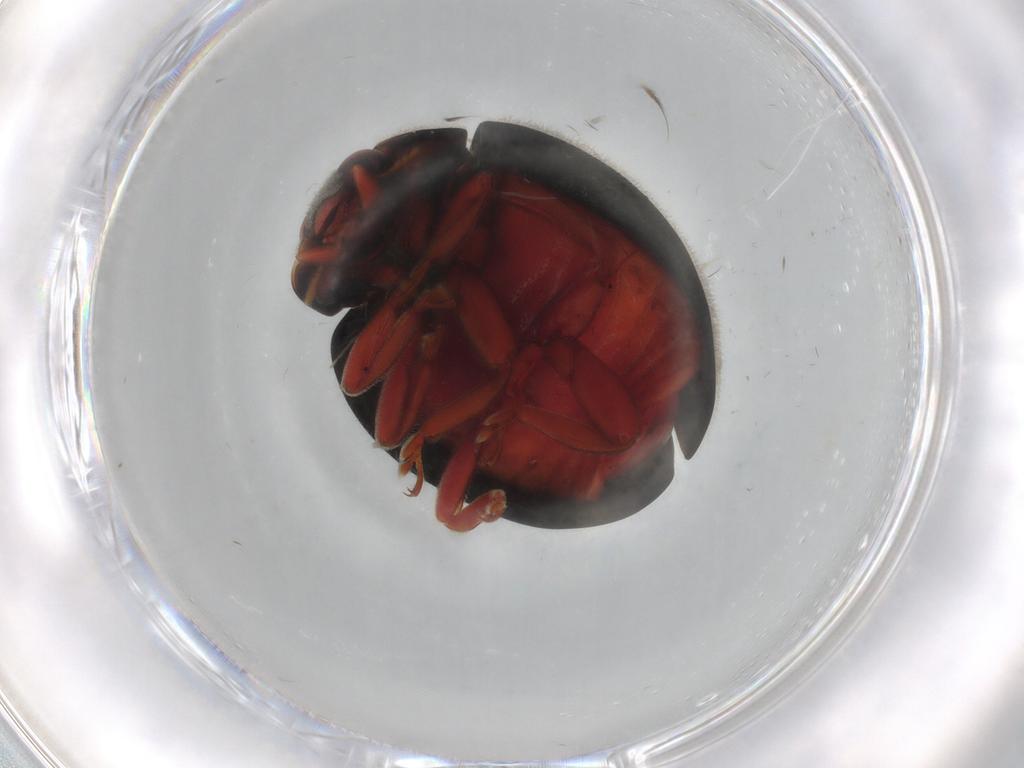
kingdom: Animalia
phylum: Arthropoda
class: Insecta
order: Coleoptera
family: Coccinellidae
